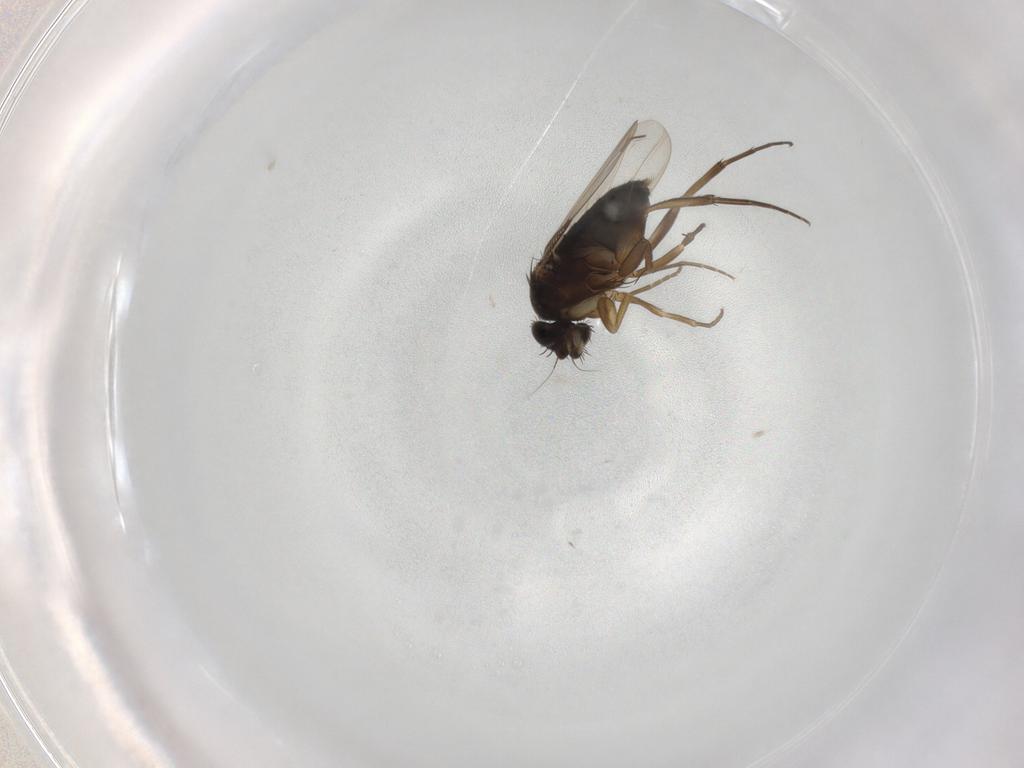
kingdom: Animalia
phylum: Arthropoda
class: Insecta
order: Diptera
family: Phoridae
